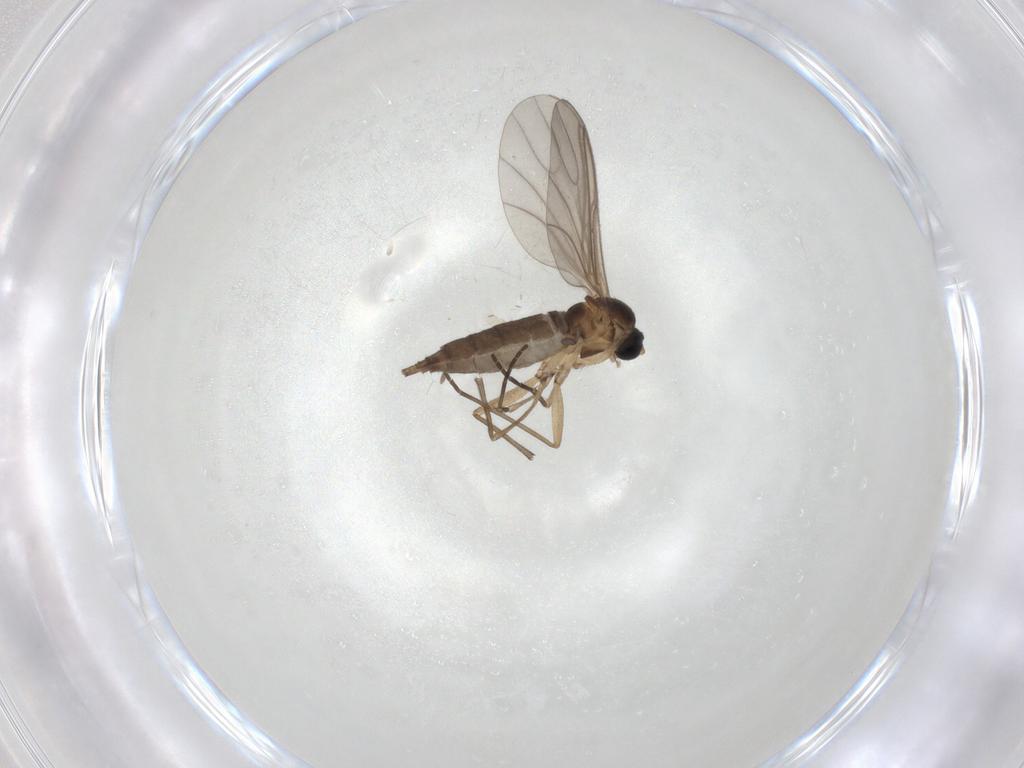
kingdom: Animalia
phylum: Arthropoda
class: Insecta
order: Diptera
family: Sciaridae
